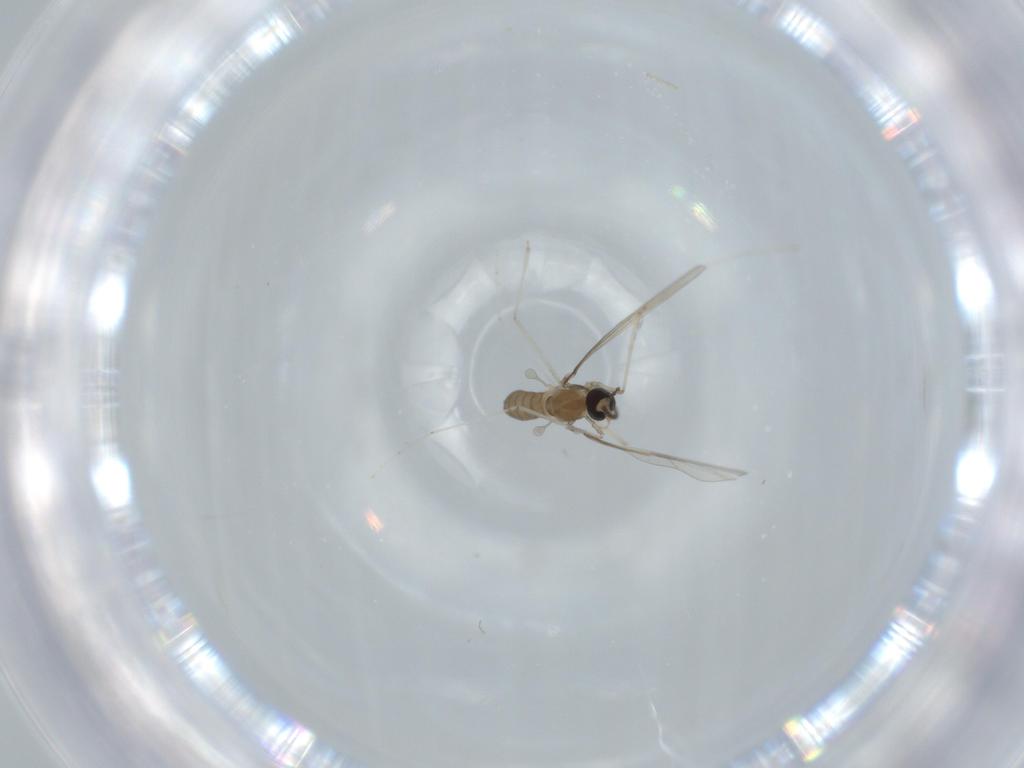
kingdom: Animalia
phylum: Arthropoda
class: Insecta
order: Diptera
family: Cecidomyiidae
